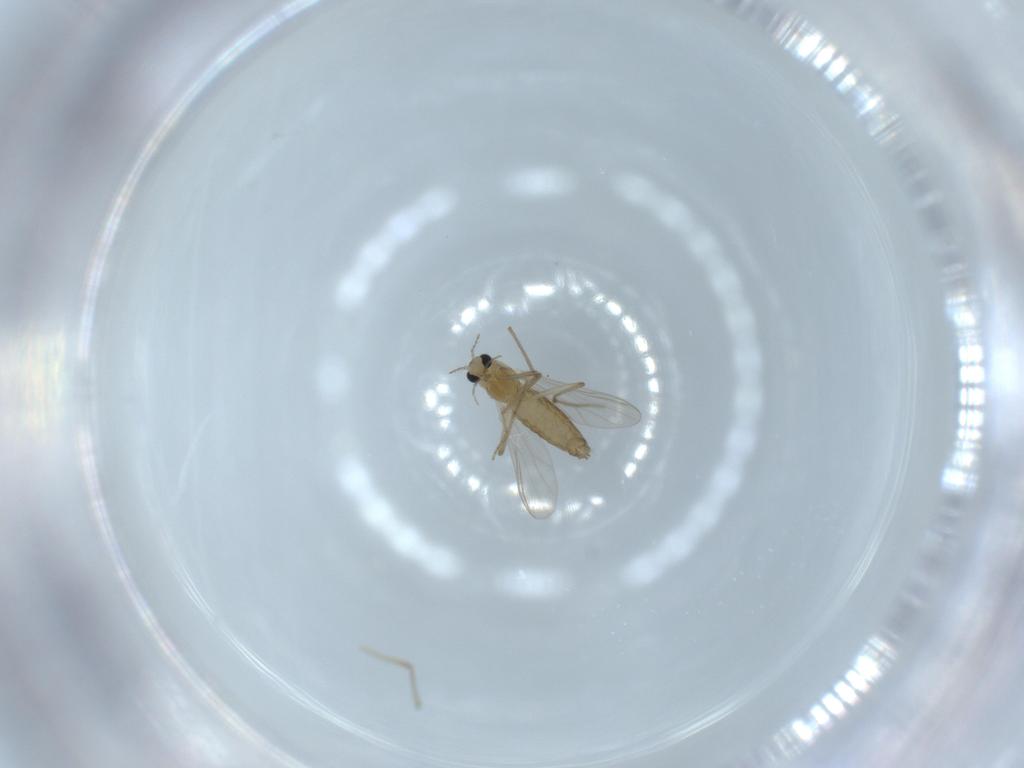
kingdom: Animalia
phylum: Arthropoda
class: Insecta
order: Diptera
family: Chironomidae
